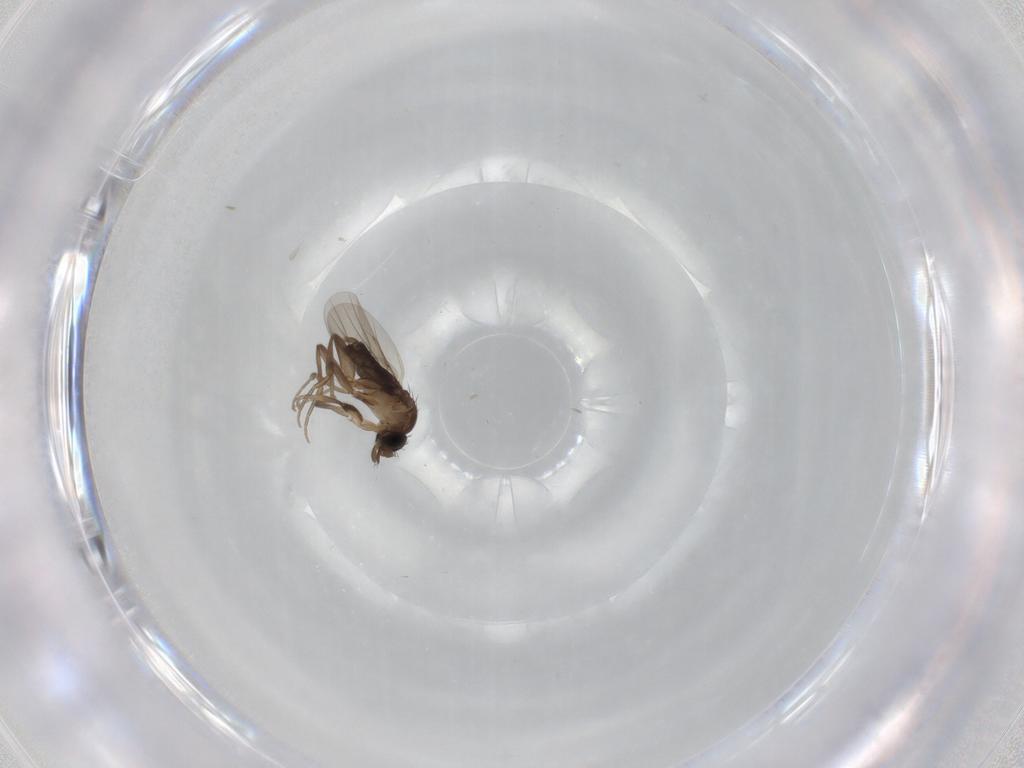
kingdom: Animalia
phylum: Arthropoda
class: Insecta
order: Diptera
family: Phoridae
